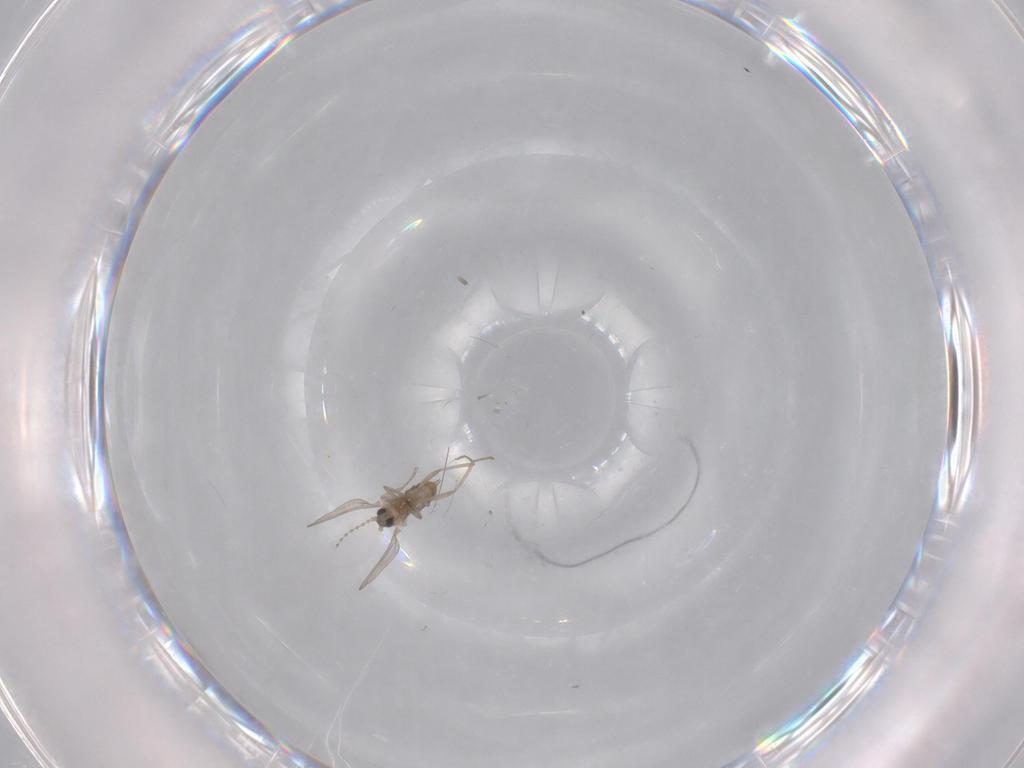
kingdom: Animalia
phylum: Arthropoda
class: Insecta
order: Diptera
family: Cecidomyiidae
